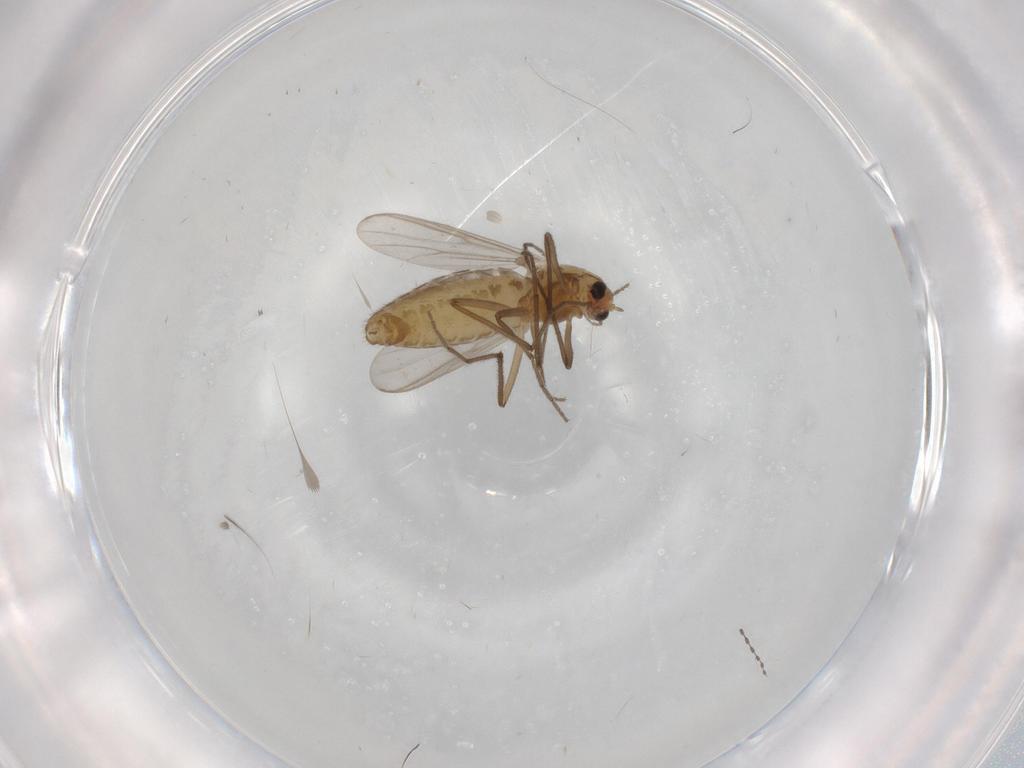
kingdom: Animalia
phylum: Arthropoda
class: Insecta
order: Diptera
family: Chironomidae
